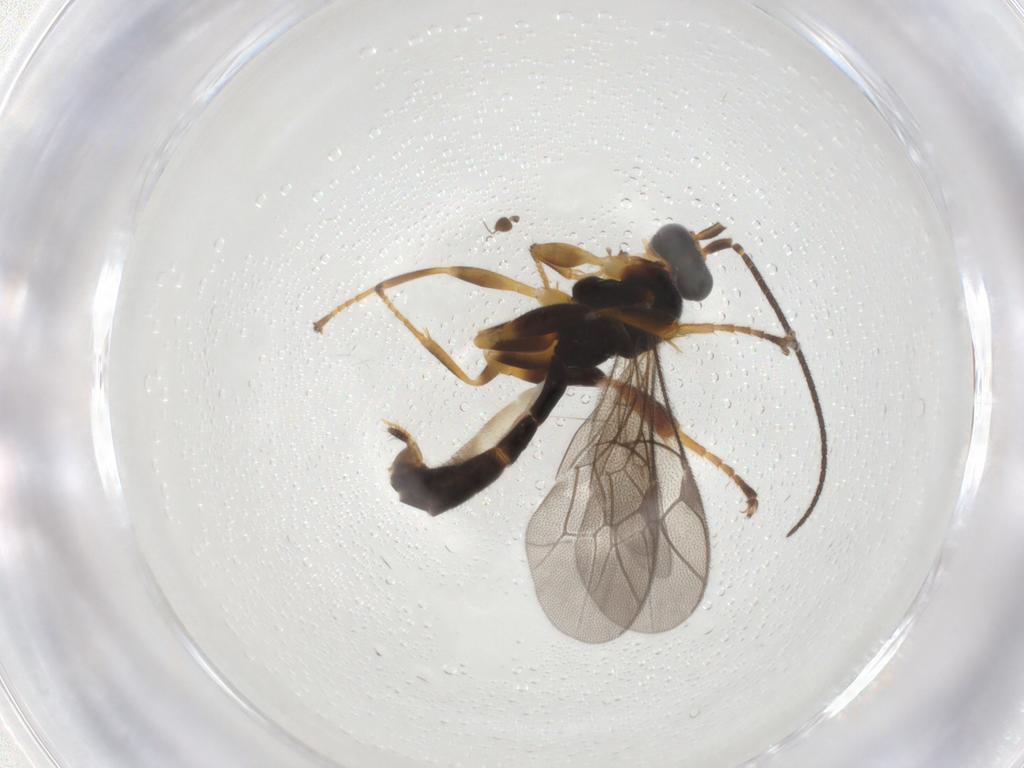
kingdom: Animalia
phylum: Arthropoda
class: Insecta
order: Hymenoptera
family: Ichneumonidae
